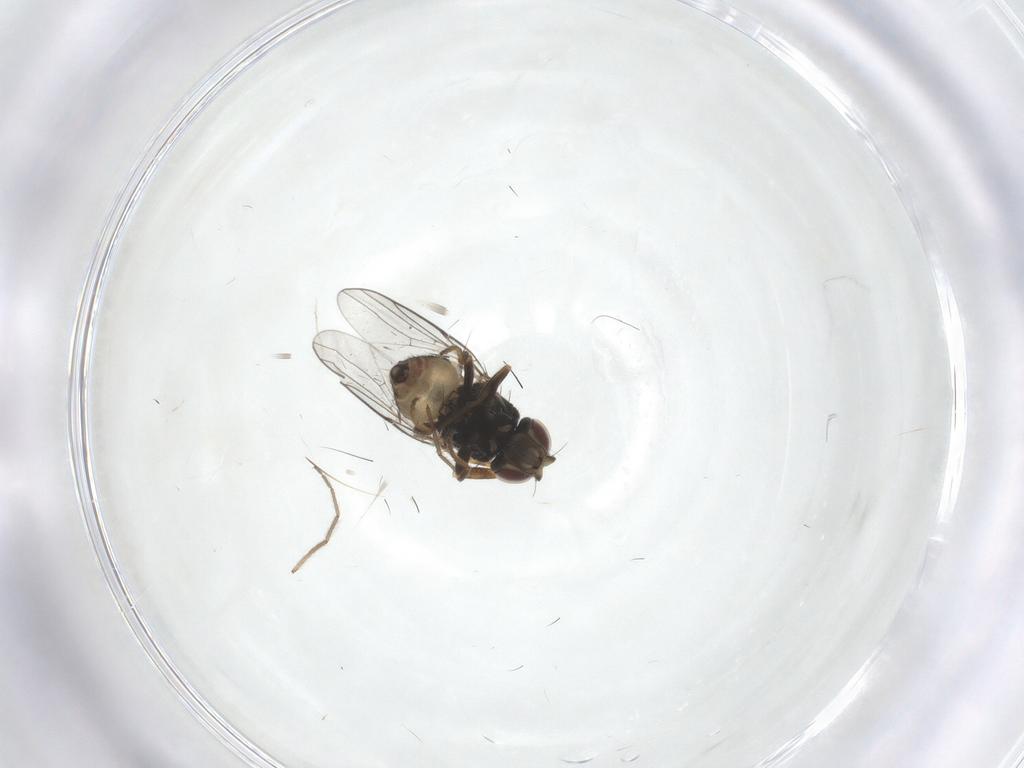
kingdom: Animalia
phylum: Arthropoda
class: Insecta
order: Diptera
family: Chloropidae
